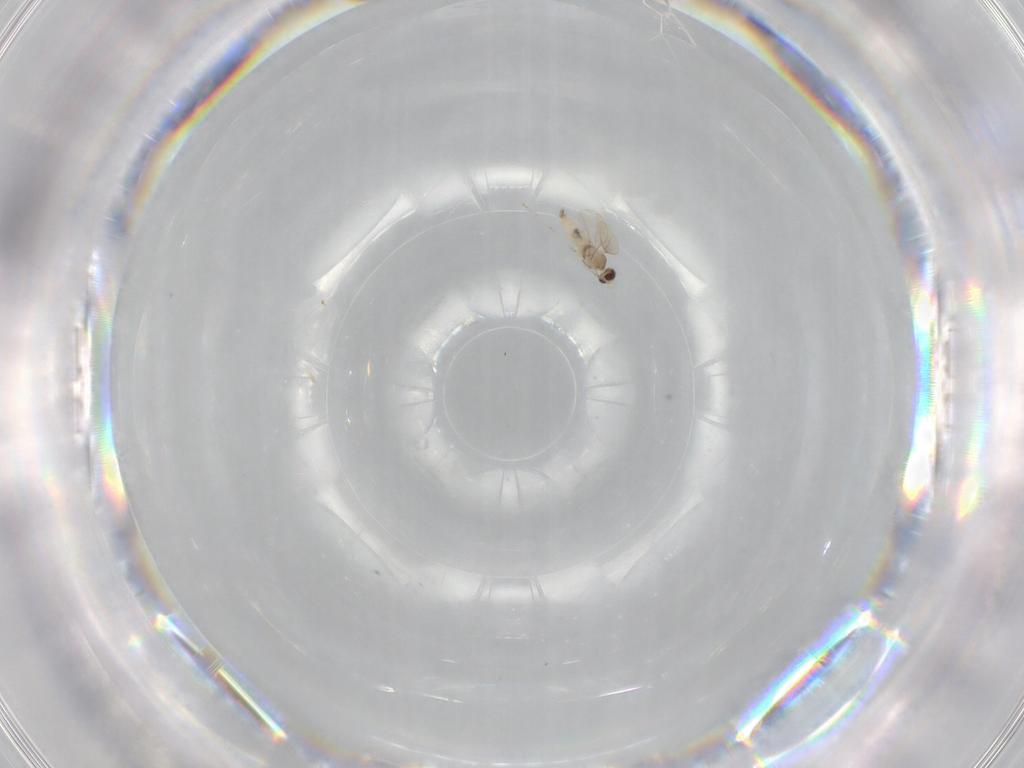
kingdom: Animalia
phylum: Arthropoda
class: Insecta
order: Diptera
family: Cecidomyiidae
